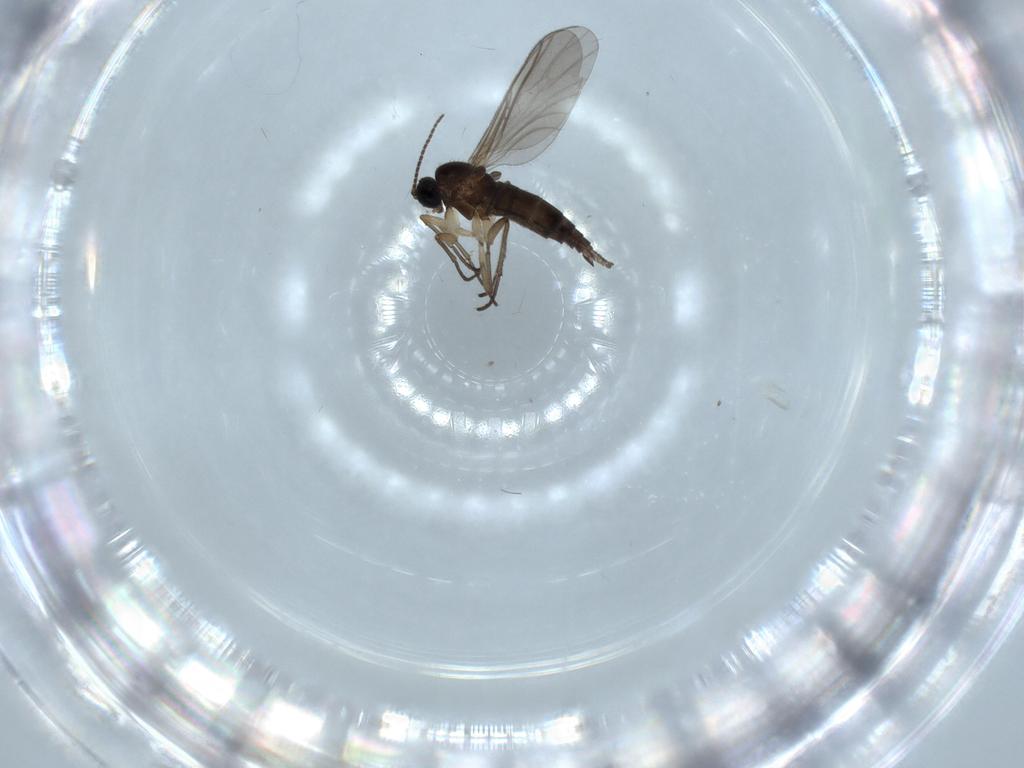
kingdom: Animalia
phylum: Arthropoda
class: Insecta
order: Diptera
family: Sciaridae
